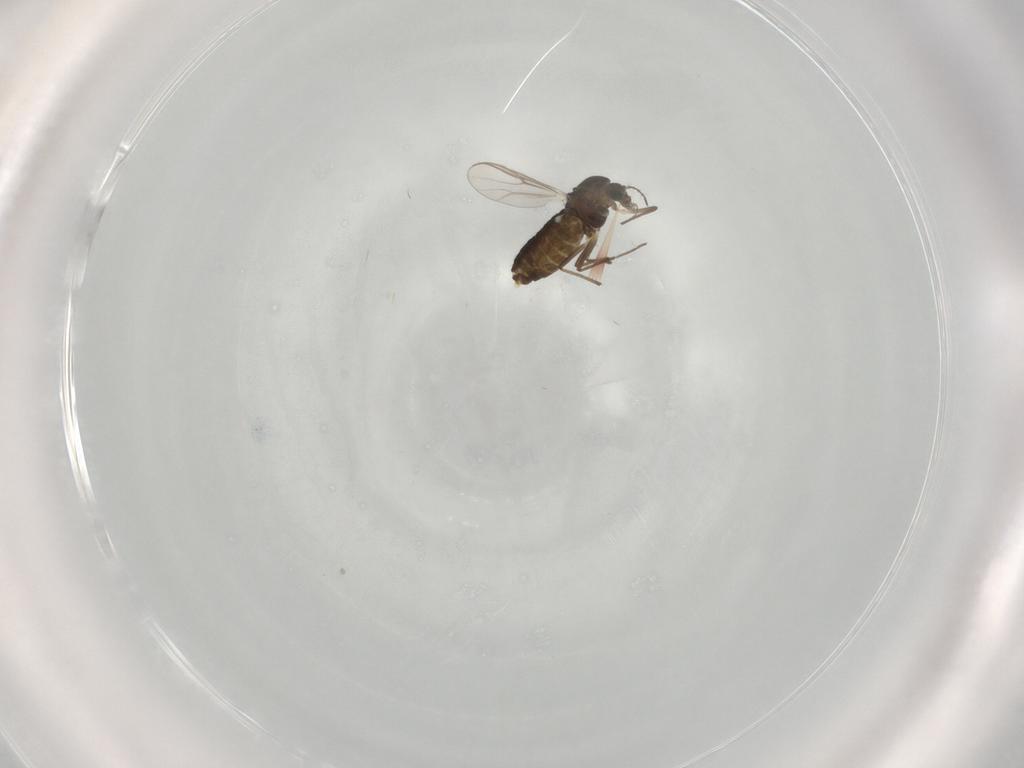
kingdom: Animalia
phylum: Arthropoda
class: Insecta
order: Diptera
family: Chironomidae
